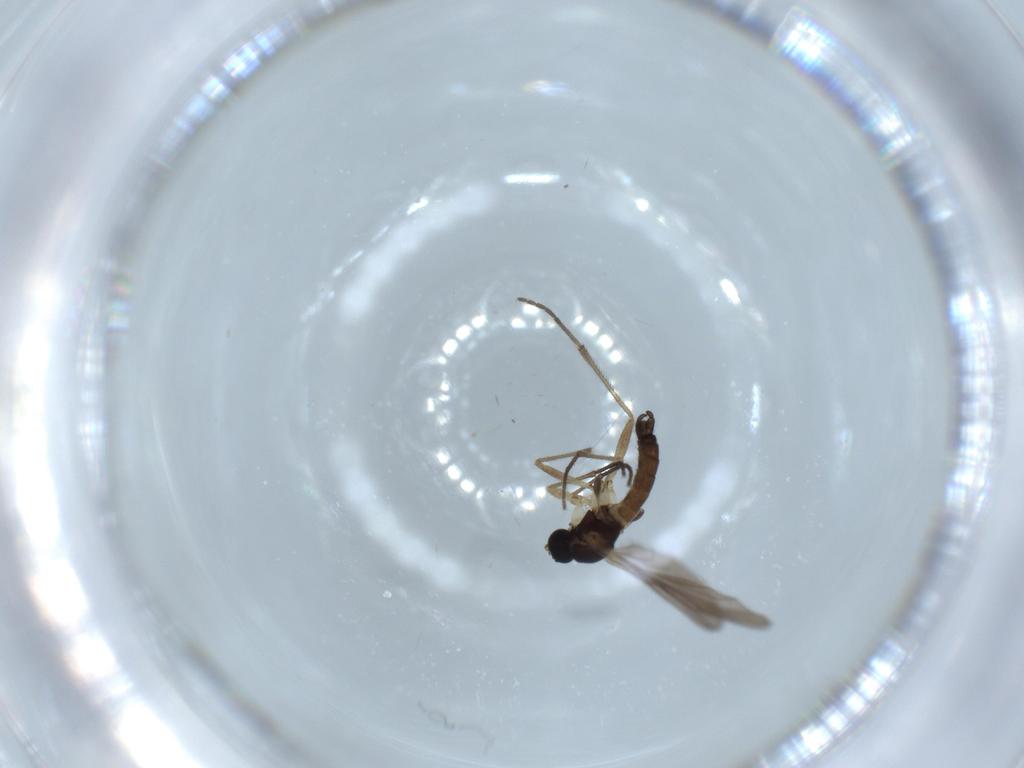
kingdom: Animalia
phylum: Arthropoda
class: Insecta
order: Diptera
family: Sciaridae
